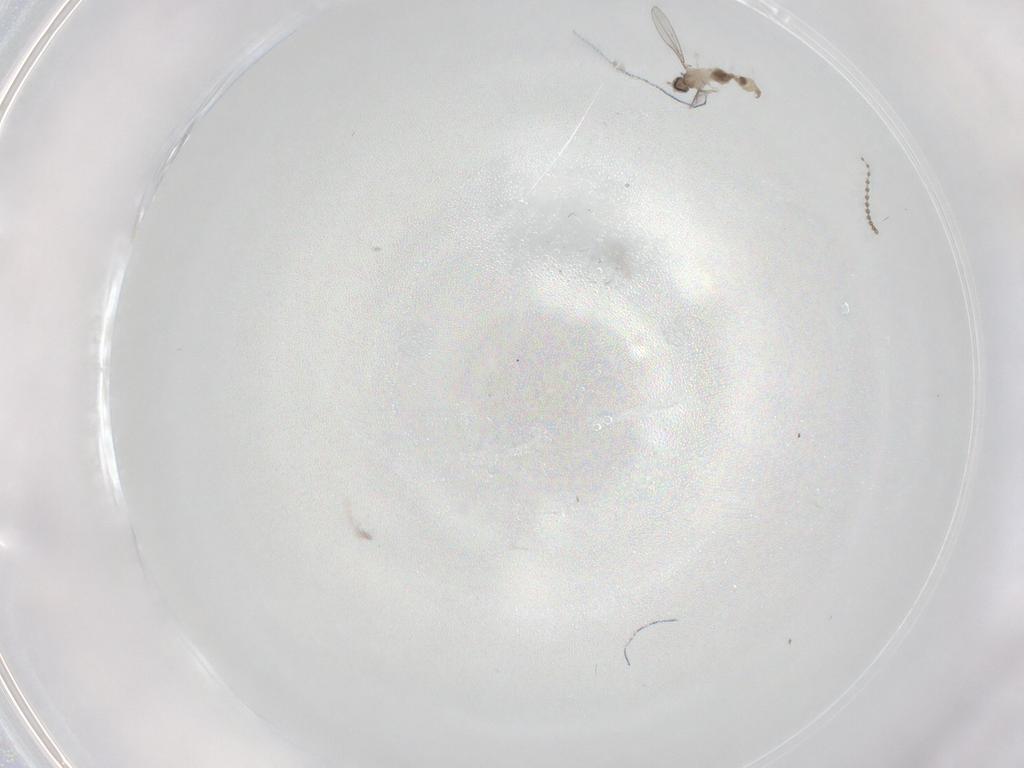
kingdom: Animalia
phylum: Arthropoda
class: Insecta
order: Diptera
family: Cecidomyiidae
